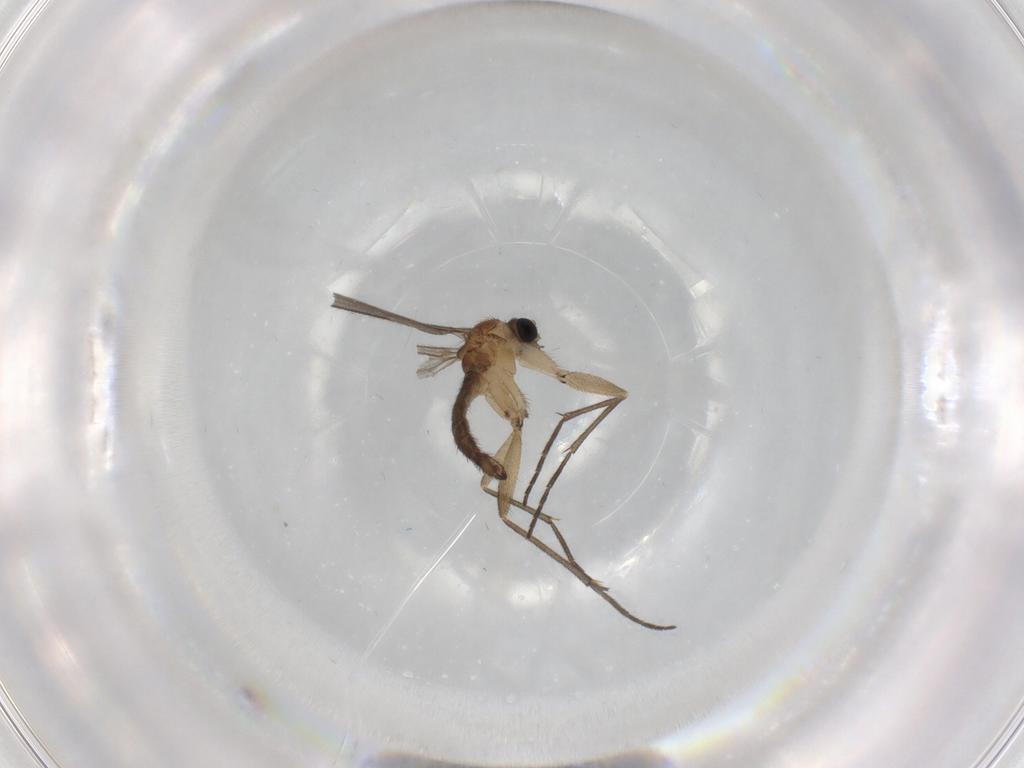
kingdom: Animalia
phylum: Arthropoda
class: Insecta
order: Diptera
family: Sciaridae
